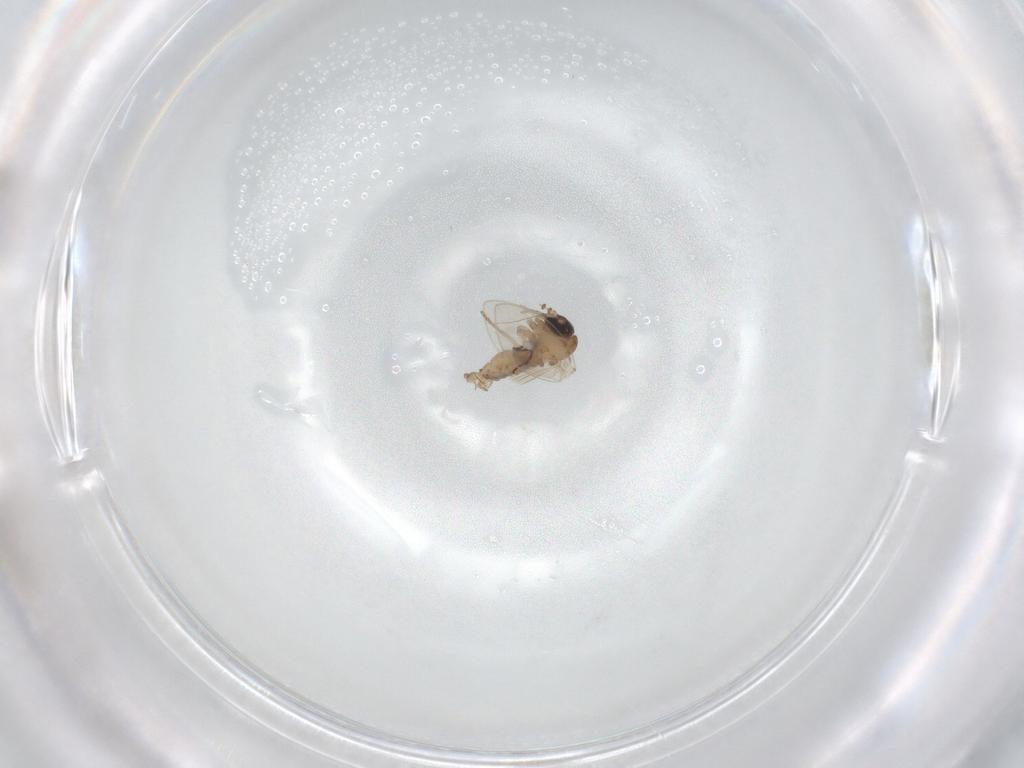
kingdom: Animalia
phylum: Arthropoda
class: Insecta
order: Diptera
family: Psychodidae
